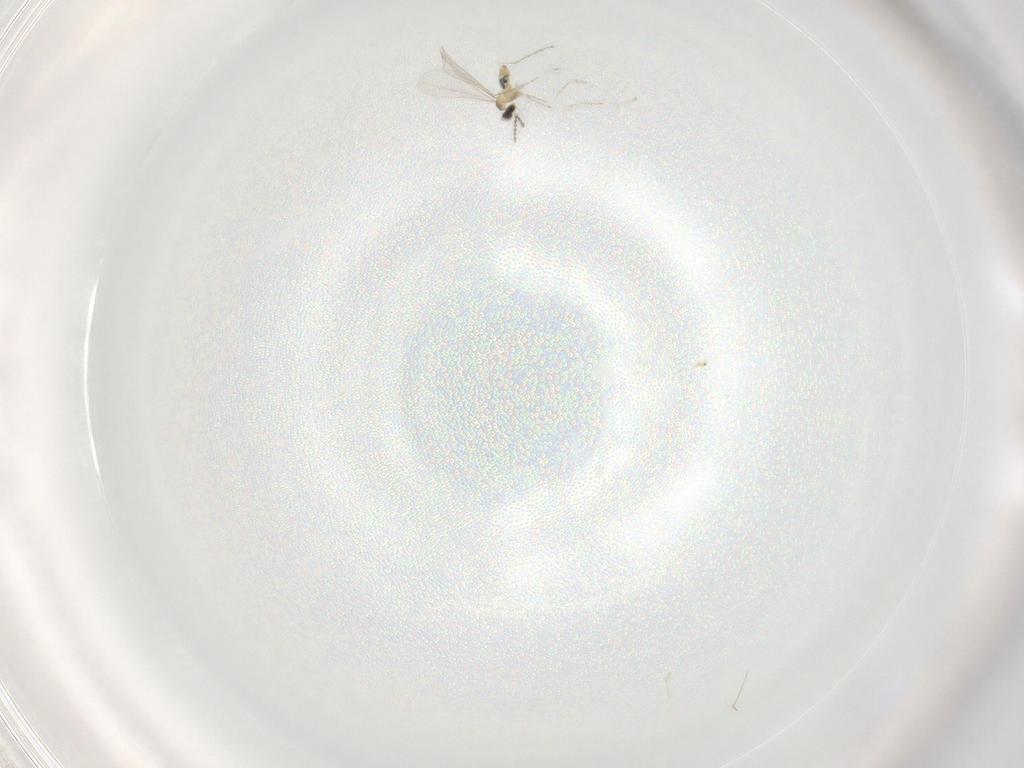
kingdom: Animalia
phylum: Arthropoda
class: Insecta
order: Diptera
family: Cecidomyiidae
